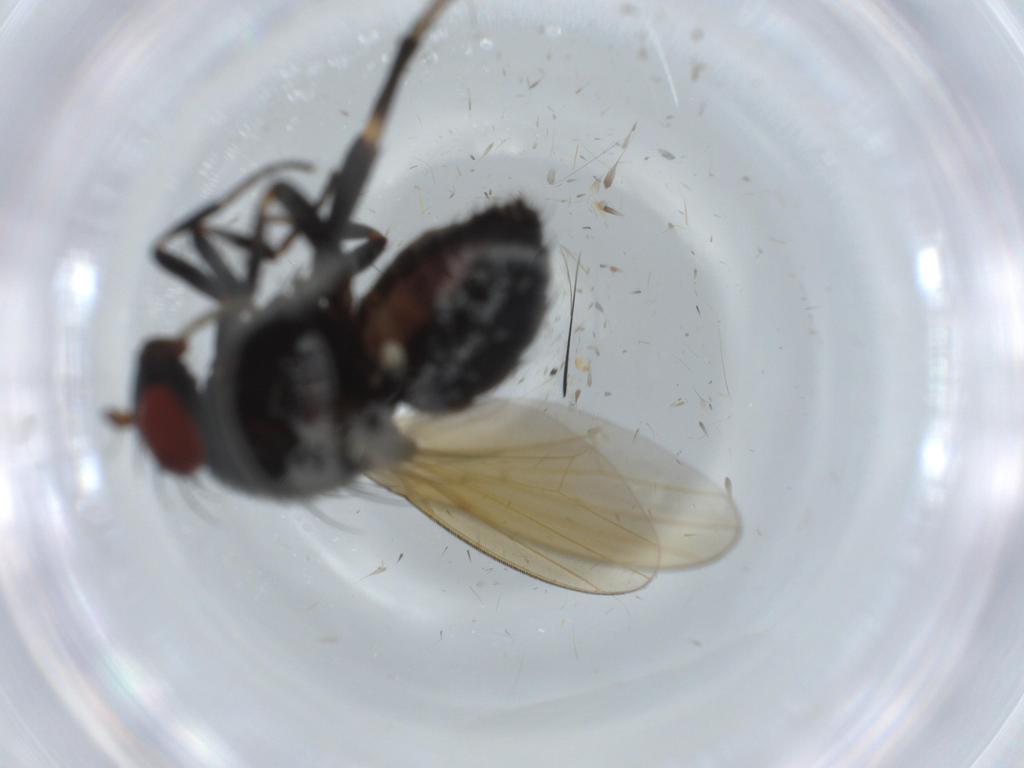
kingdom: Animalia
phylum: Arthropoda
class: Insecta
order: Diptera
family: Lauxaniidae
